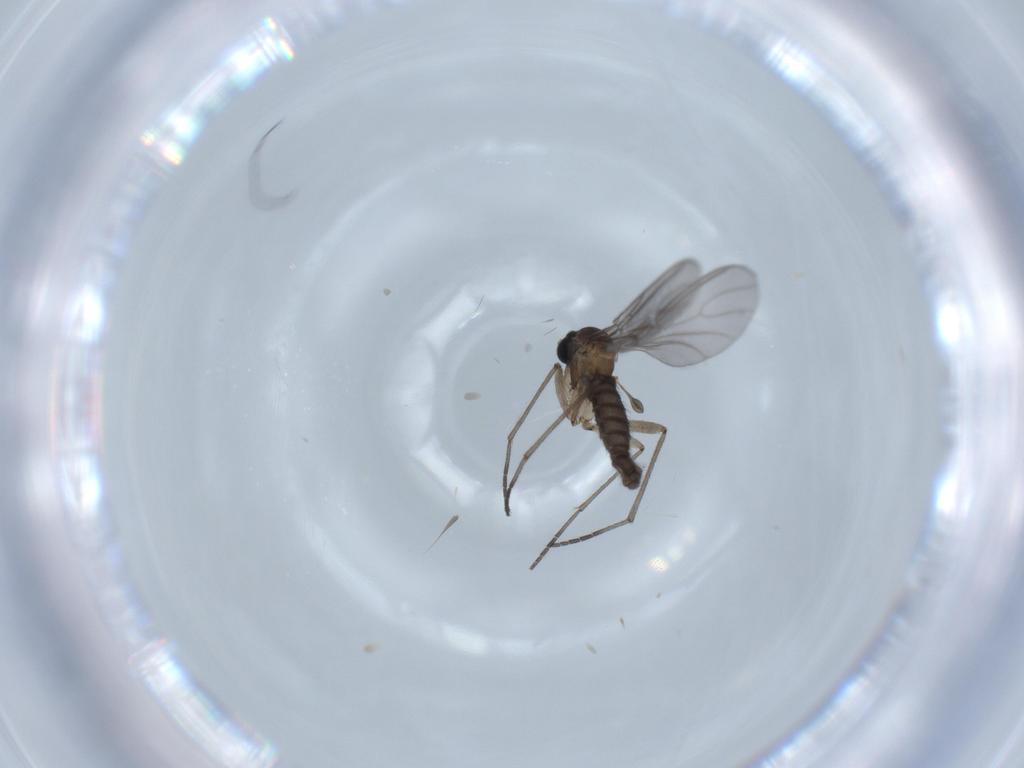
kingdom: Animalia
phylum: Arthropoda
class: Insecta
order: Diptera
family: Sciaridae
